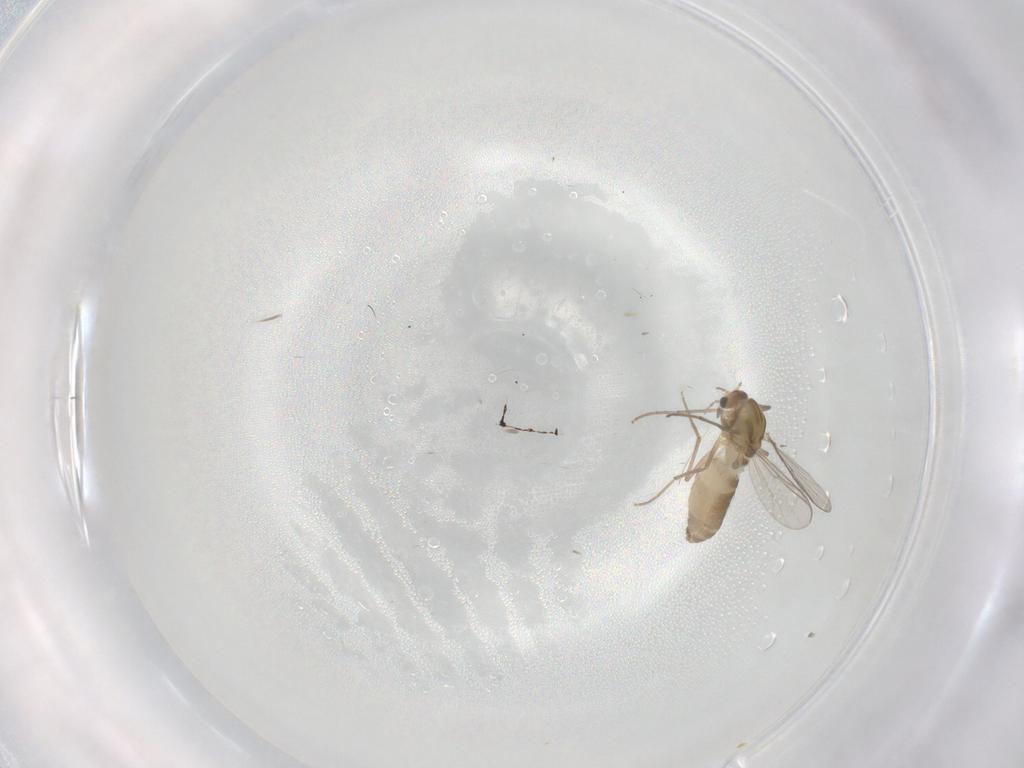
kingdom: Animalia
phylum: Arthropoda
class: Insecta
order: Diptera
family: Chironomidae
